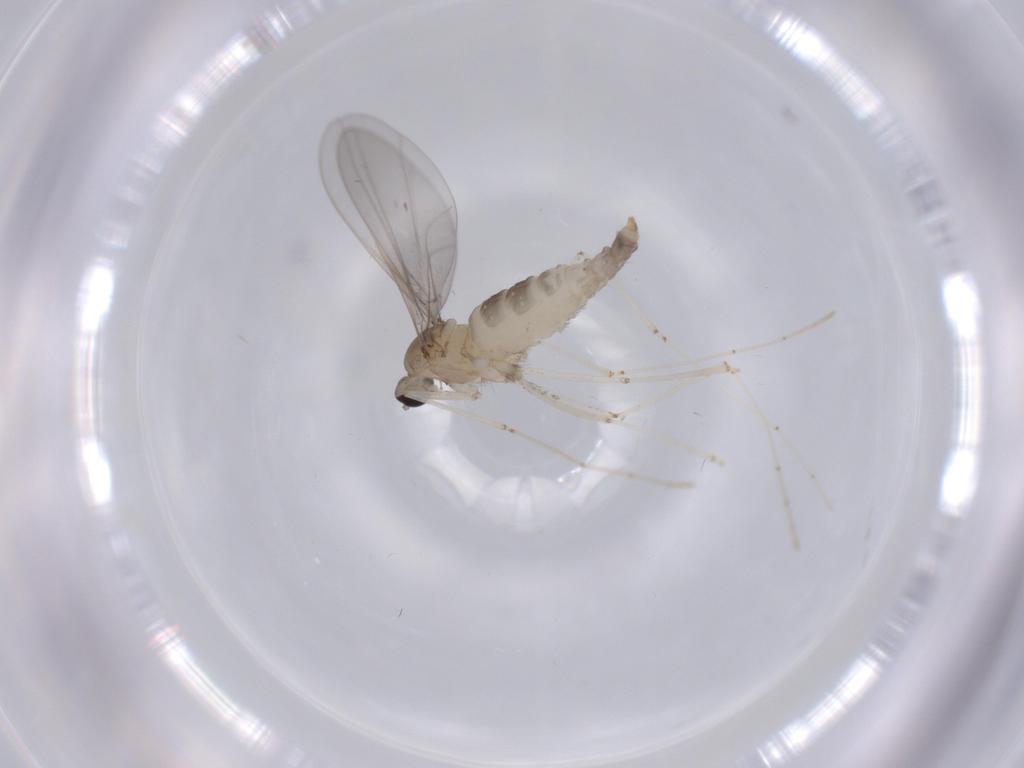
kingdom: Animalia
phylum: Arthropoda
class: Insecta
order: Diptera
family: Cecidomyiidae
